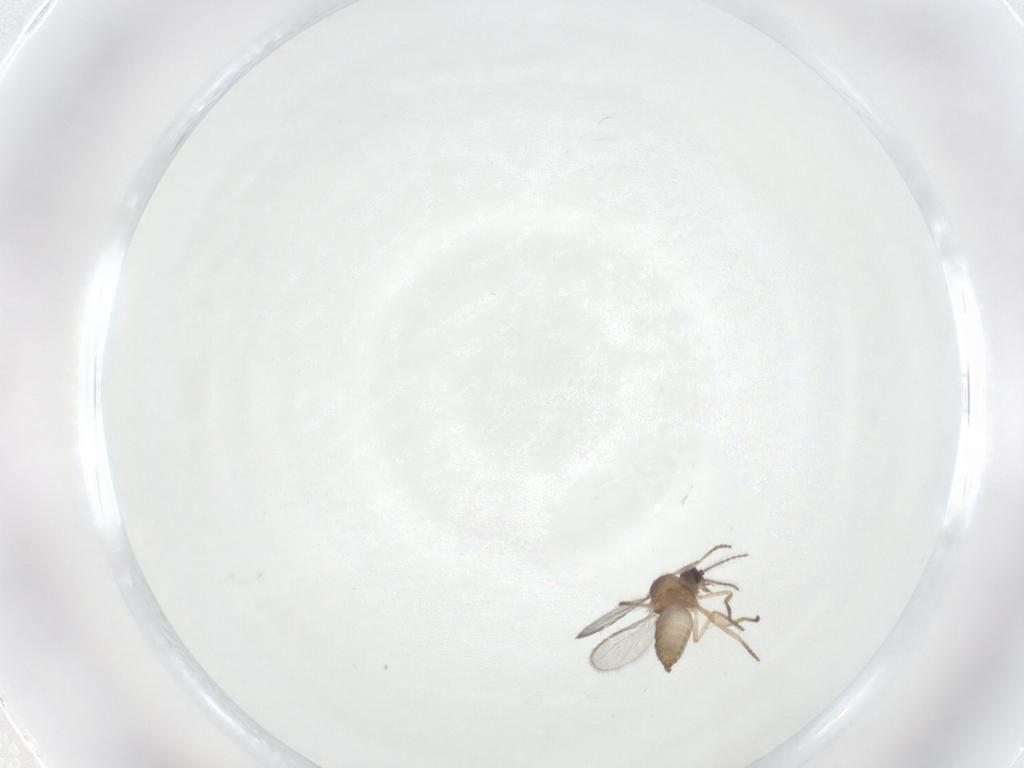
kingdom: Animalia
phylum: Arthropoda
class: Insecta
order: Diptera
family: Ceratopogonidae
